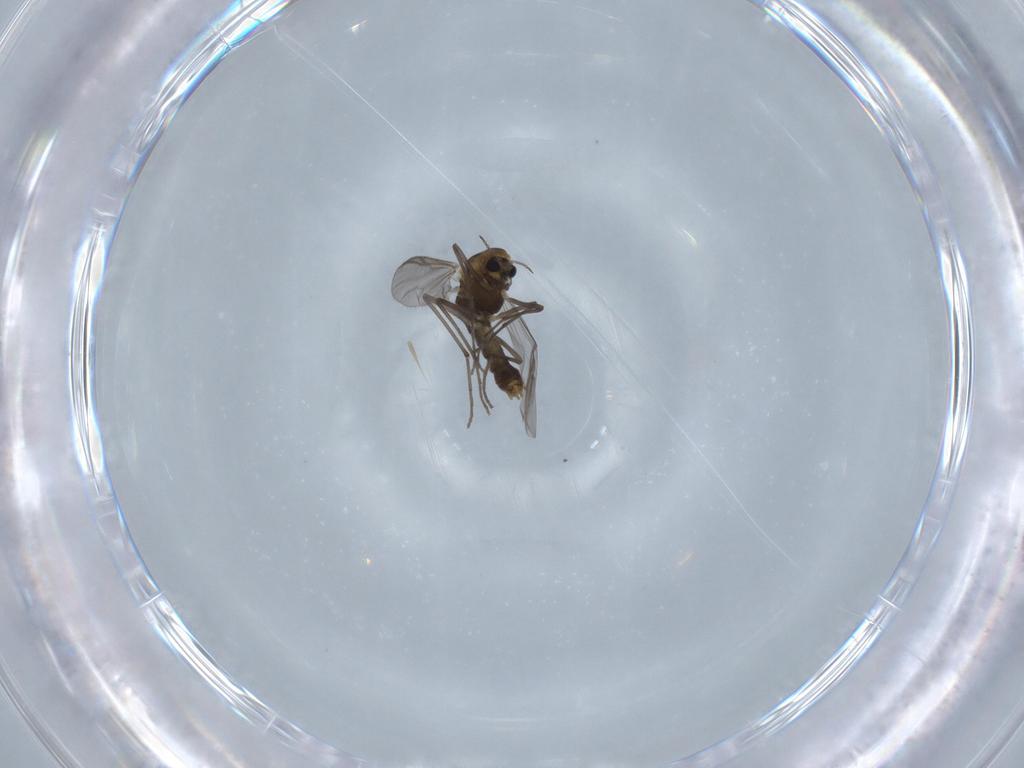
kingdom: Animalia
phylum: Arthropoda
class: Insecta
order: Diptera
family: Chironomidae
